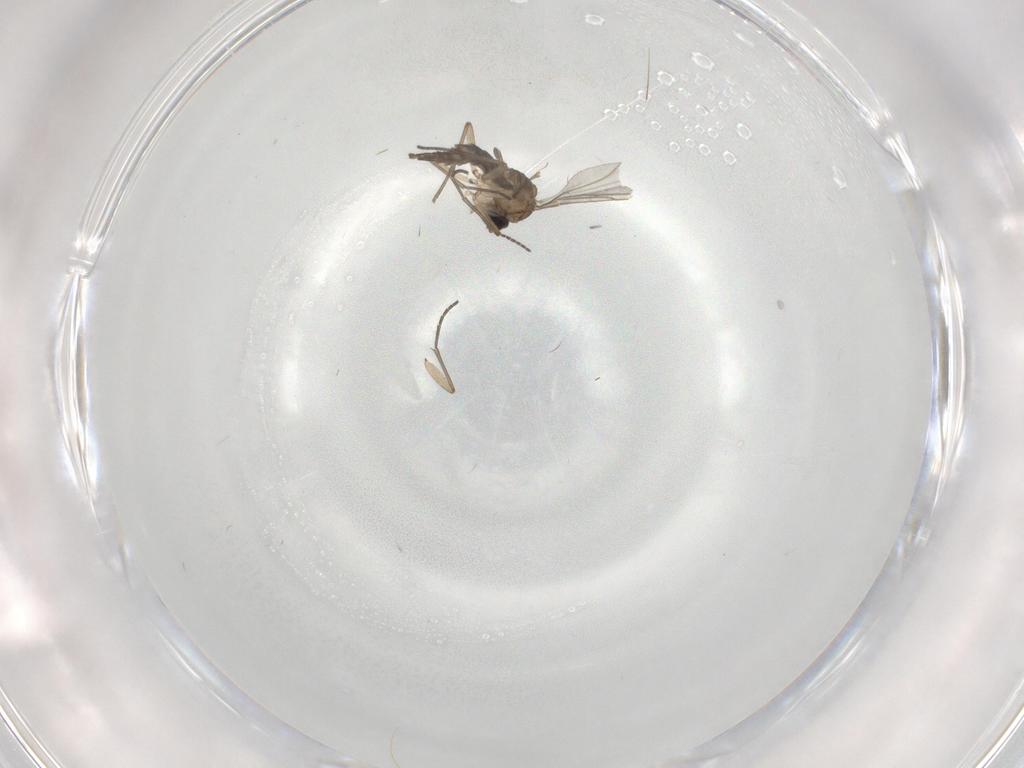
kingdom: Animalia
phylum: Arthropoda
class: Insecta
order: Diptera
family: Sciaridae
